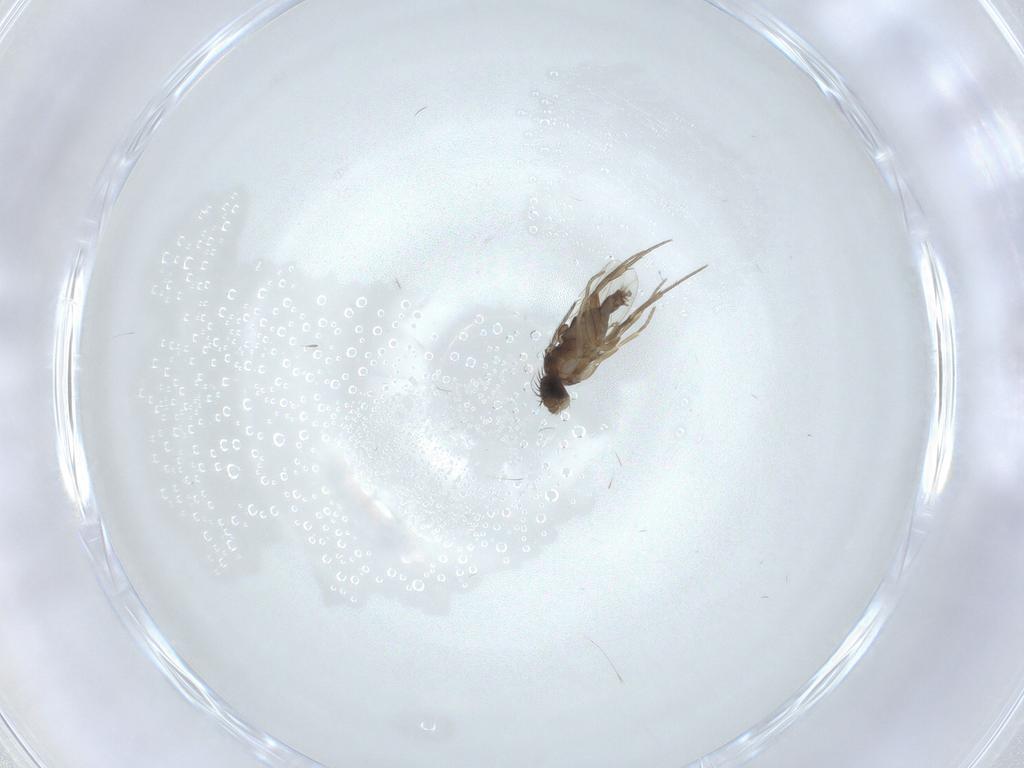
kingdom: Animalia
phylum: Arthropoda
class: Insecta
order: Diptera
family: Phoridae
